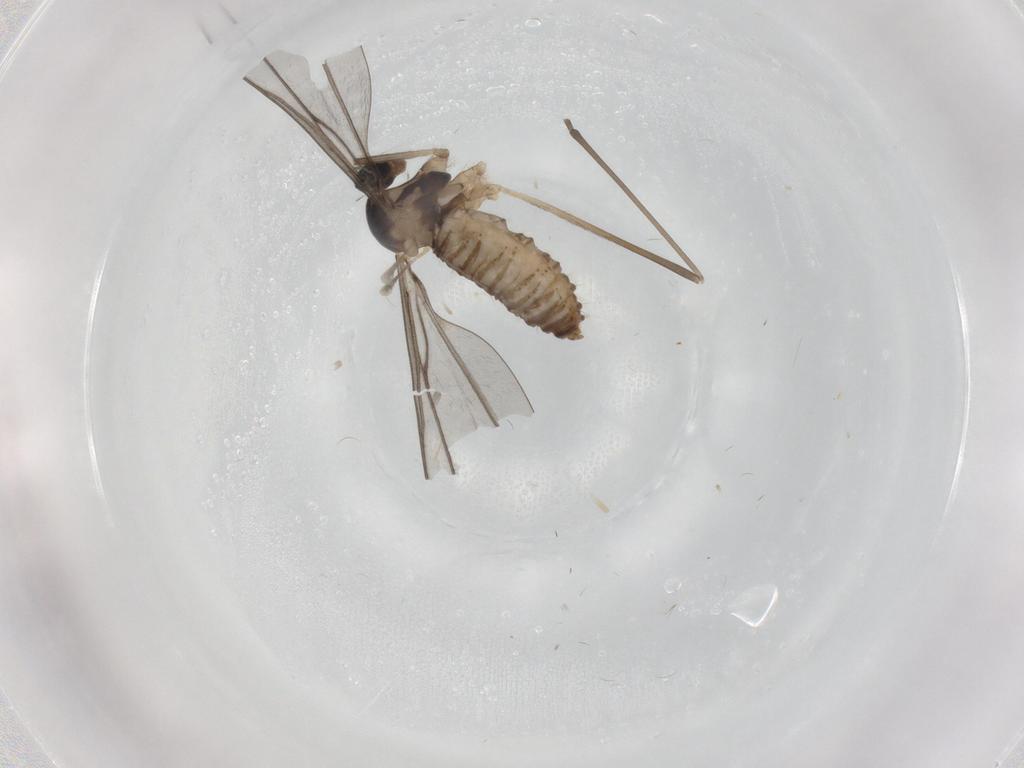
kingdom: Animalia
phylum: Arthropoda
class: Insecta
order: Diptera
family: Cecidomyiidae
